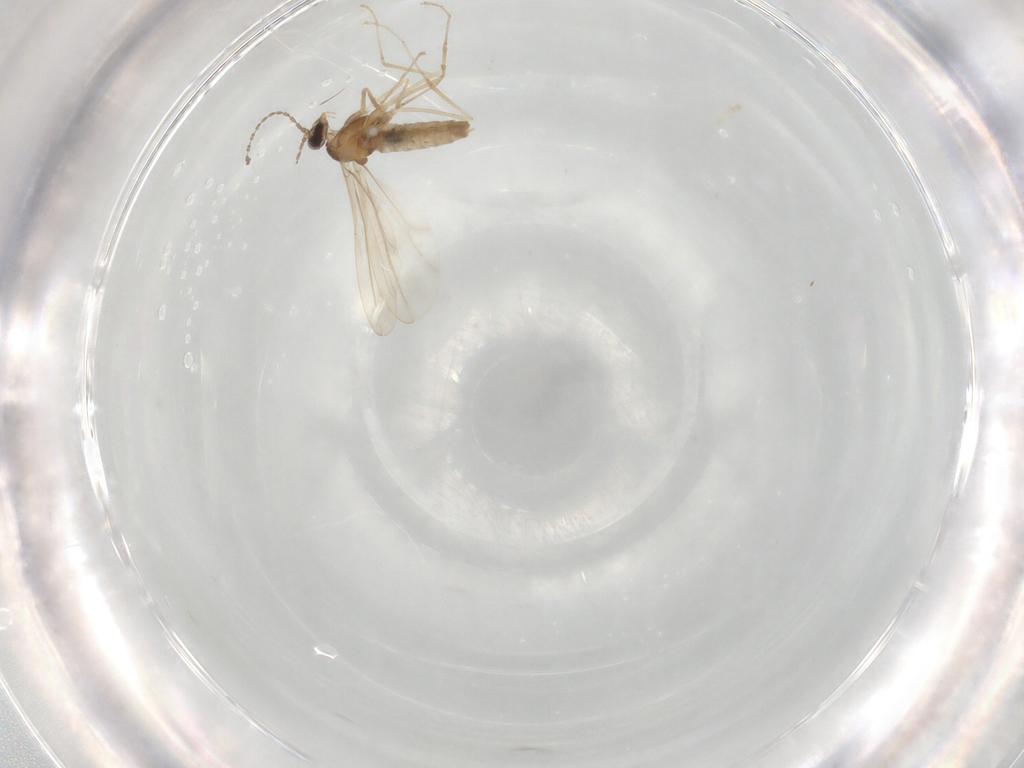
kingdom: Animalia
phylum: Arthropoda
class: Insecta
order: Diptera
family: Cecidomyiidae
